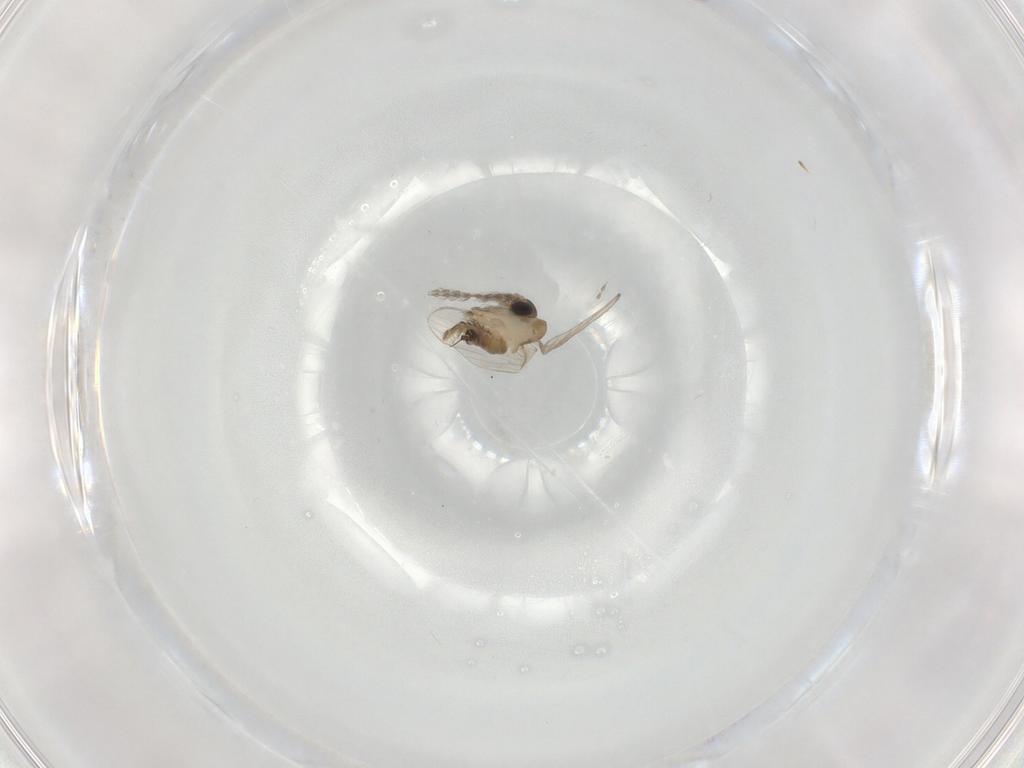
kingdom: Animalia
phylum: Arthropoda
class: Insecta
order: Diptera
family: Psychodidae
